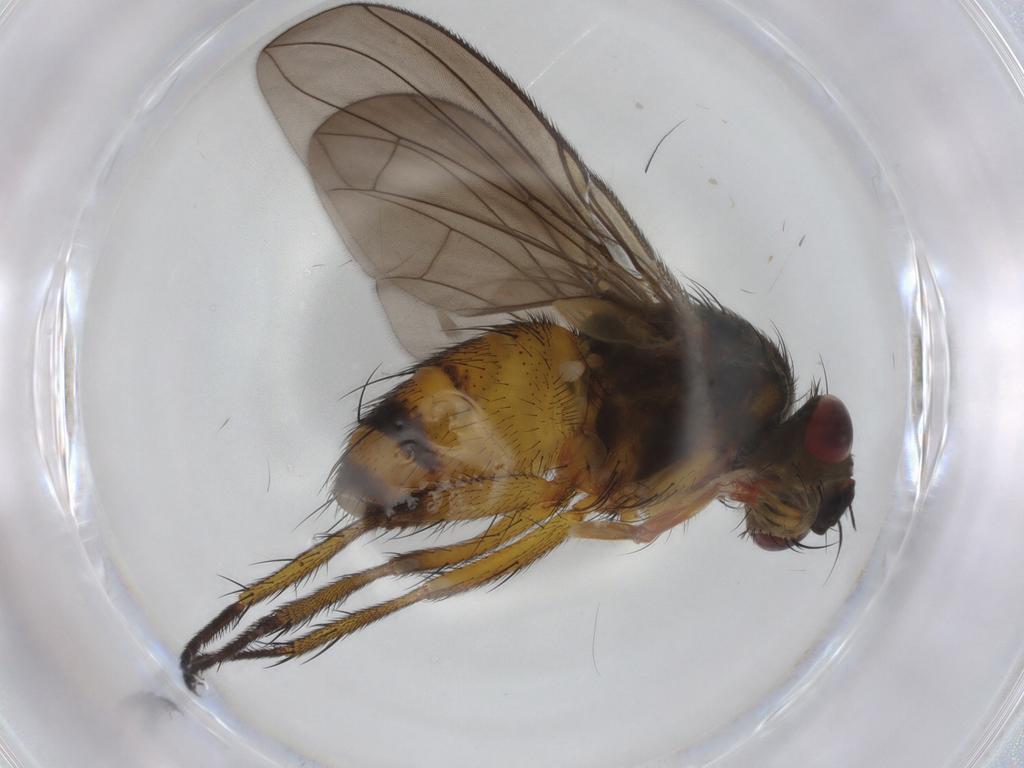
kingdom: Animalia
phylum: Arthropoda
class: Insecta
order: Diptera
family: Tachinidae
